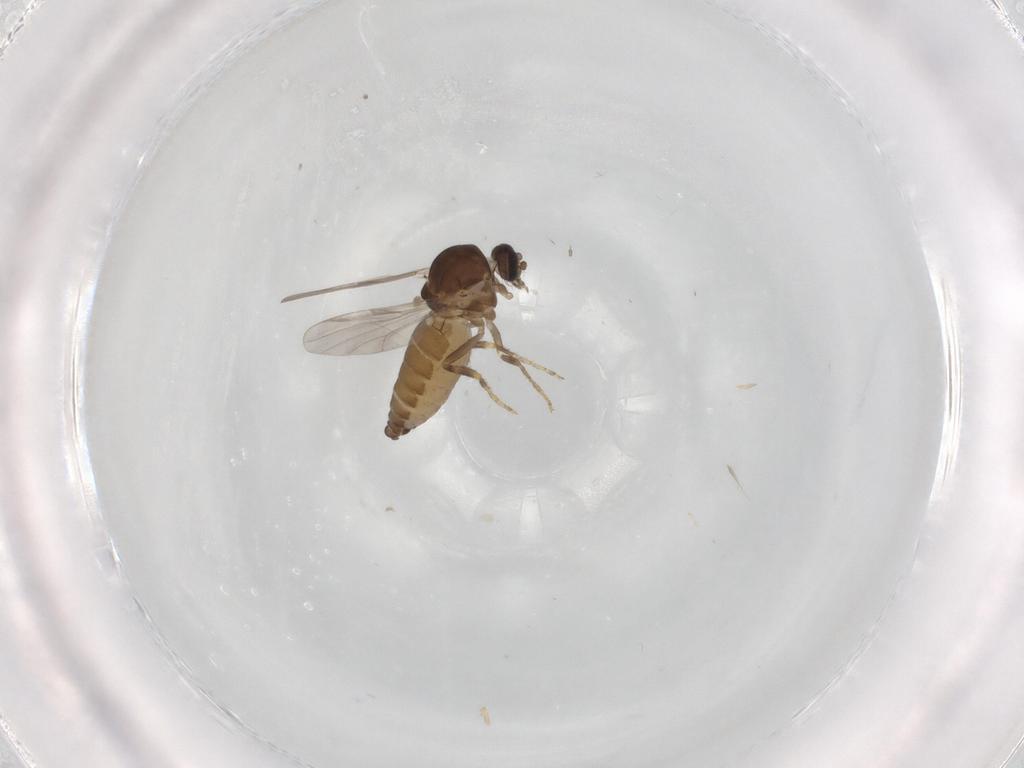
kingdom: Animalia
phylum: Arthropoda
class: Insecta
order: Diptera
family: Ceratopogonidae
